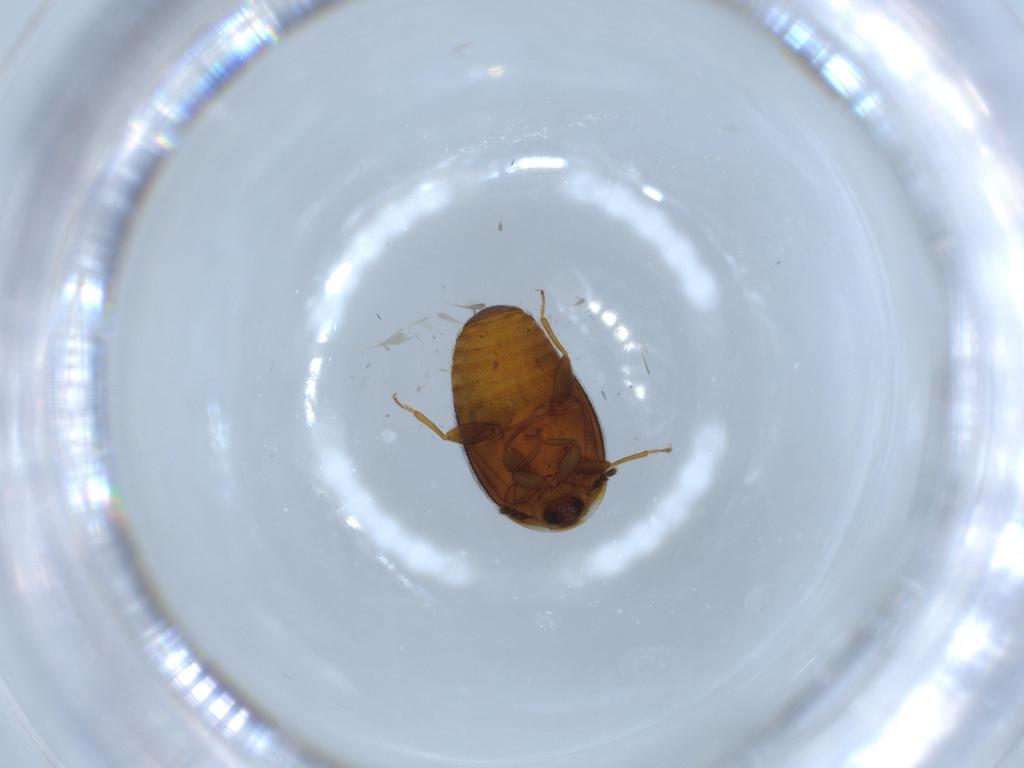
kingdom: Animalia
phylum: Arthropoda
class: Insecta
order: Coleoptera
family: Corylophidae
